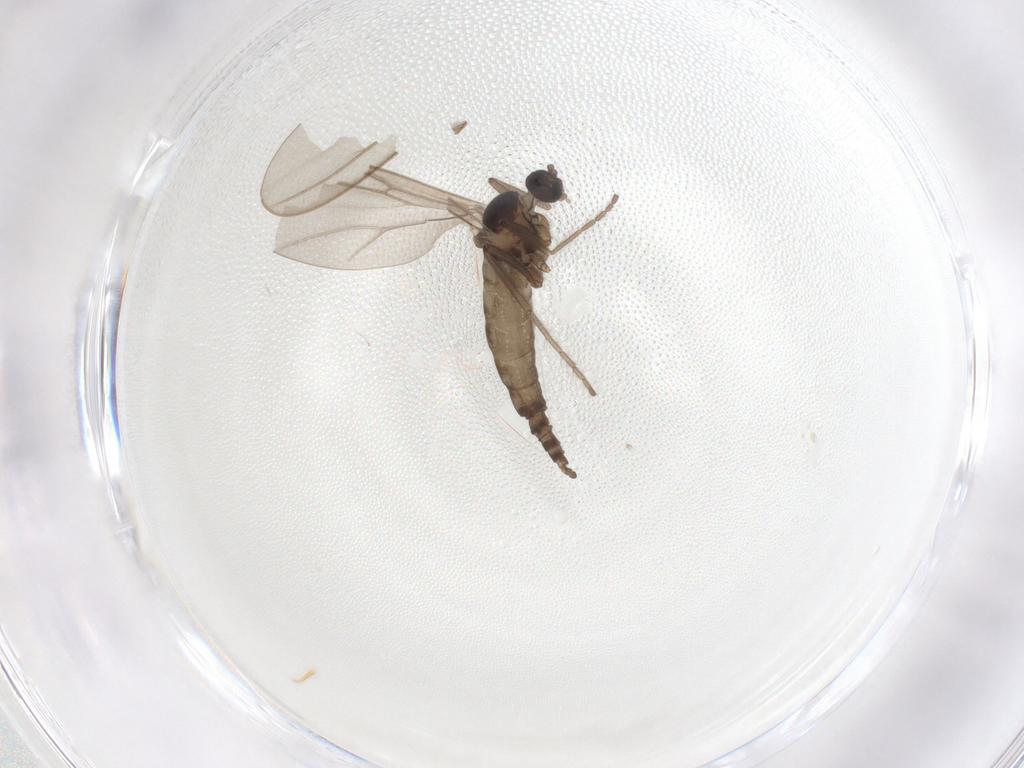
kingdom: Animalia
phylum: Arthropoda
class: Insecta
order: Diptera
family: Cecidomyiidae
